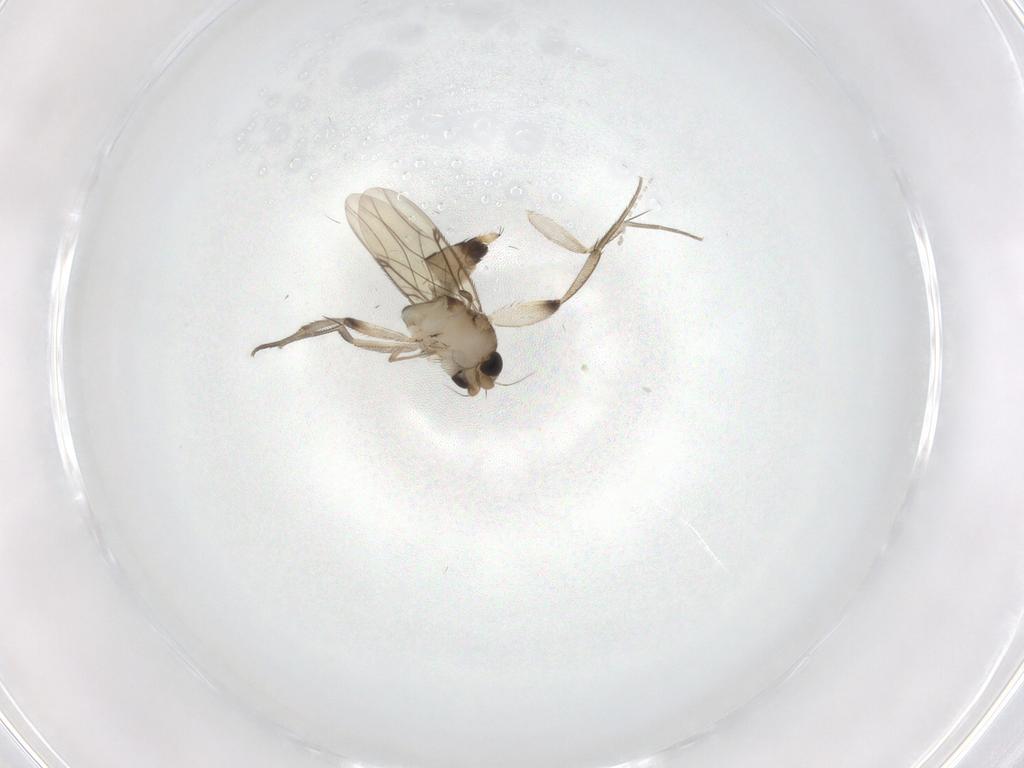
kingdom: Animalia
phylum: Arthropoda
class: Insecta
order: Diptera
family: Phoridae
